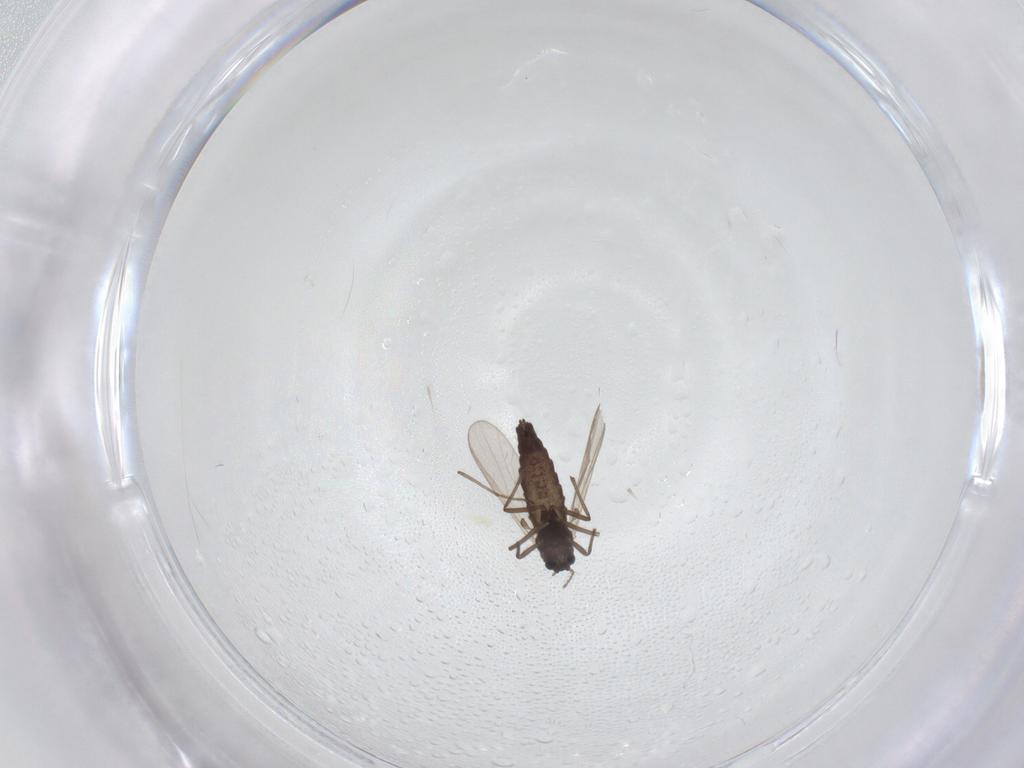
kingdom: Animalia
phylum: Arthropoda
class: Insecta
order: Diptera
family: Chironomidae
